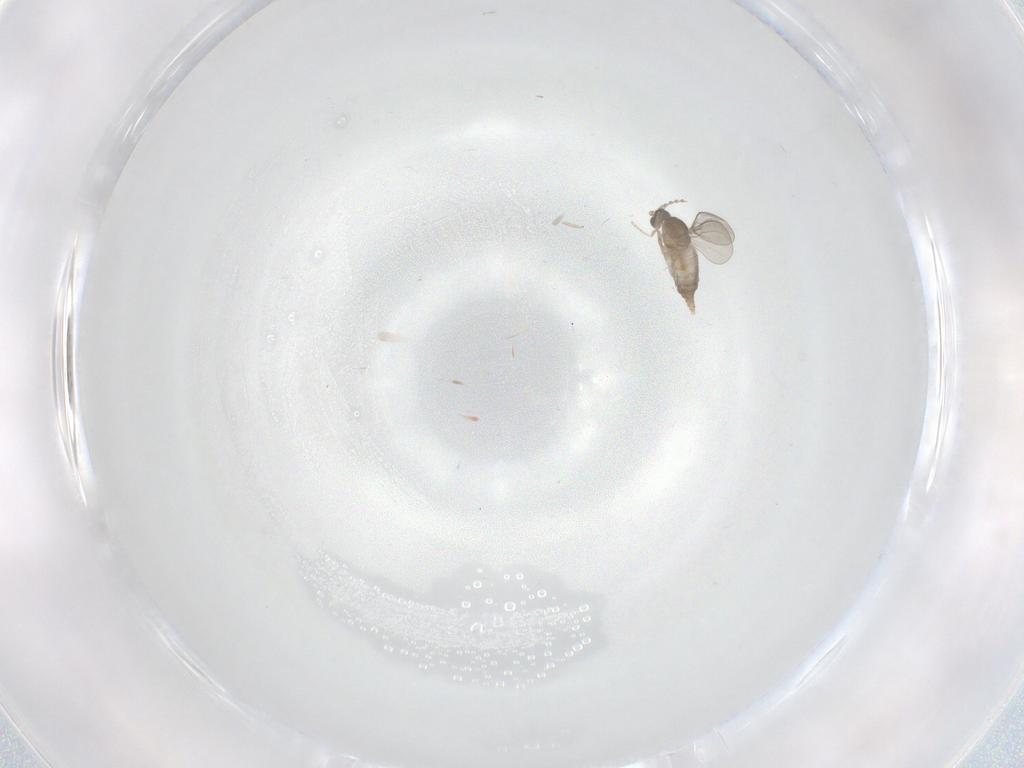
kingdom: Animalia
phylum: Arthropoda
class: Insecta
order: Diptera
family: Cecidomyiidae
